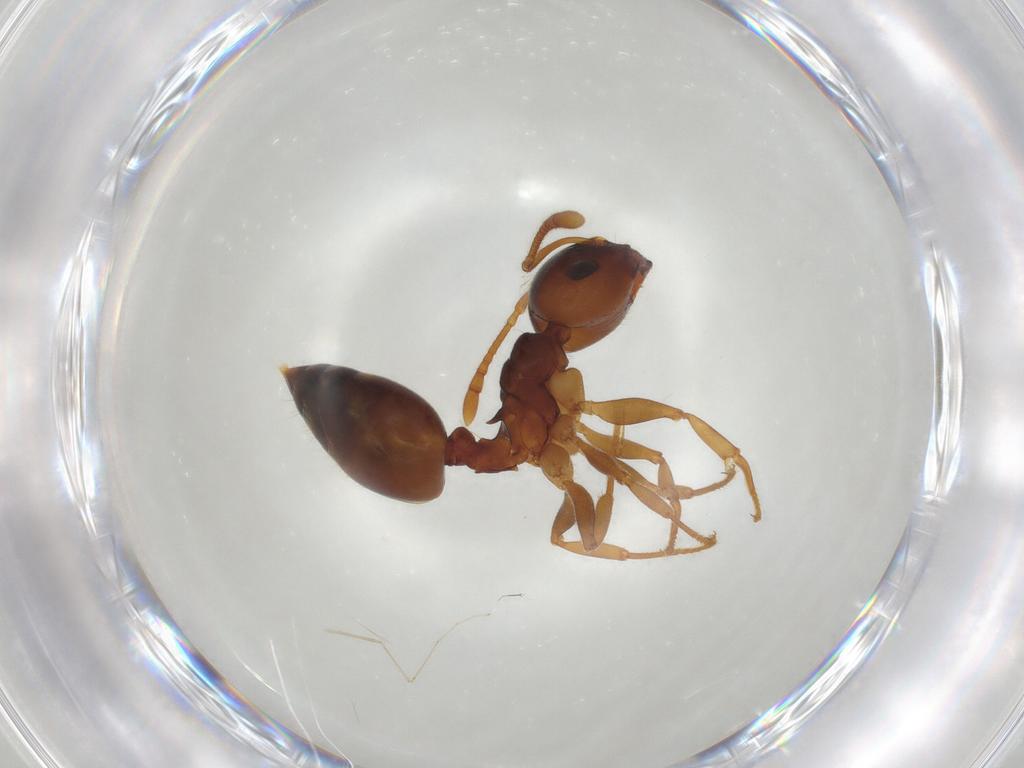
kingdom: Animalia
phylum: Arthropoda
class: Insecta
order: Hymenoptera
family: Formicidae
